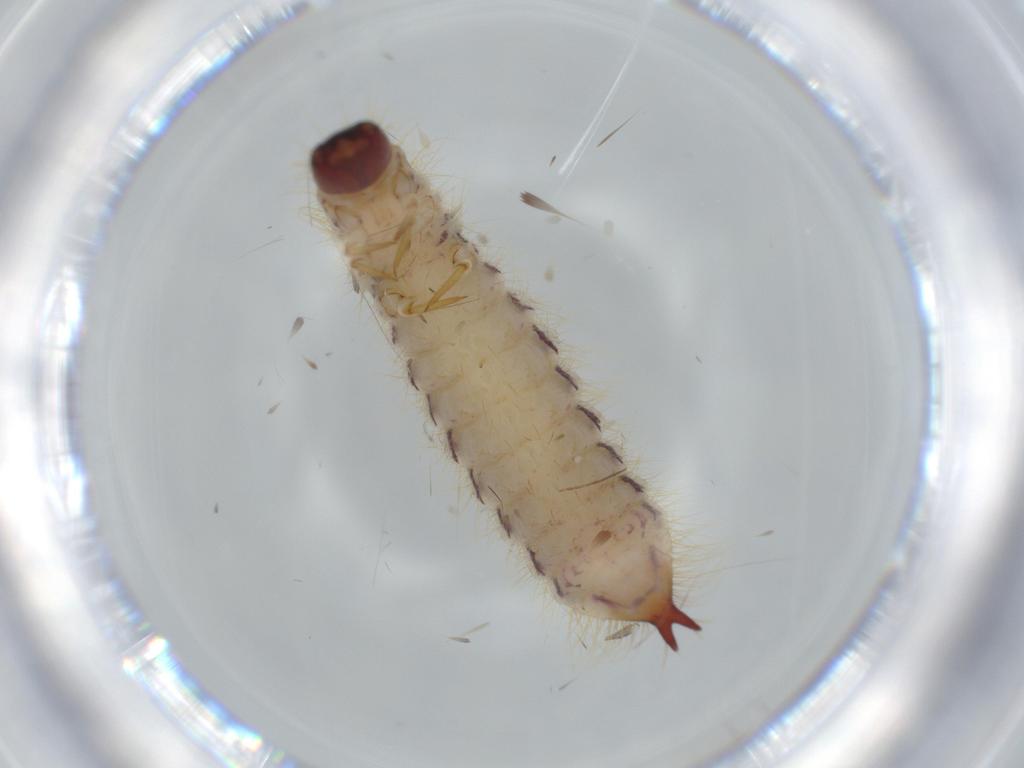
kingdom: Animalia
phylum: Arthropoda
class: Insecta
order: Coleoptera
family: Cleridae
